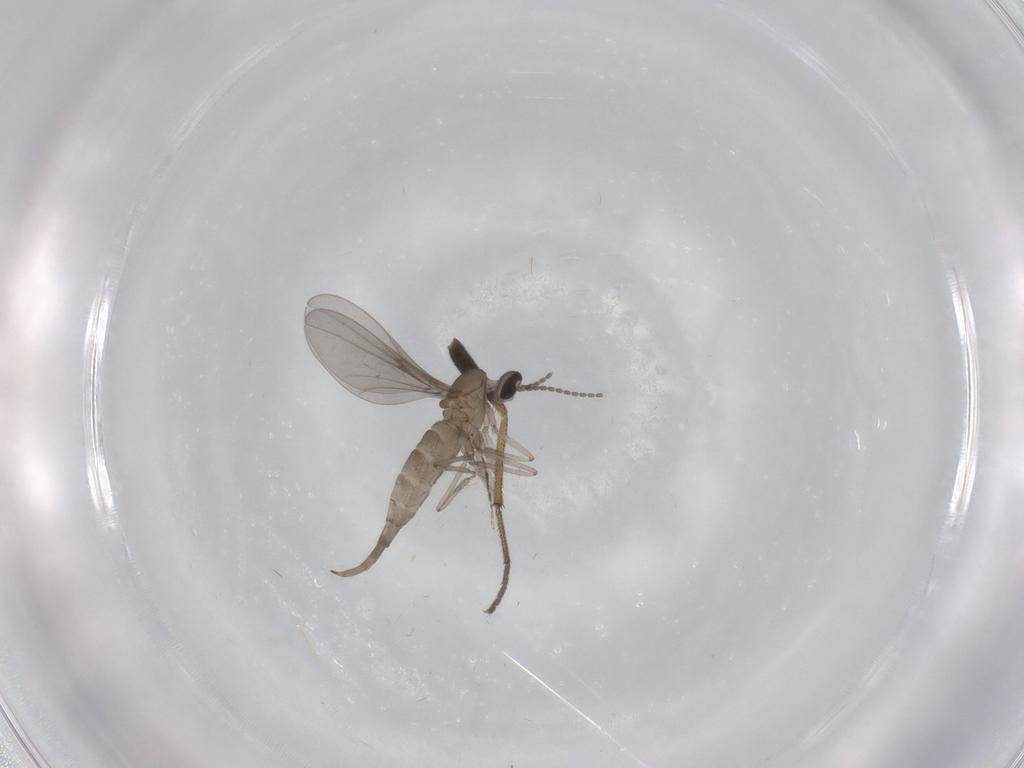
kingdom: Animalia
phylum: Arthropoda
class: Insecta
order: Diptera
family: Dolichopodidae
